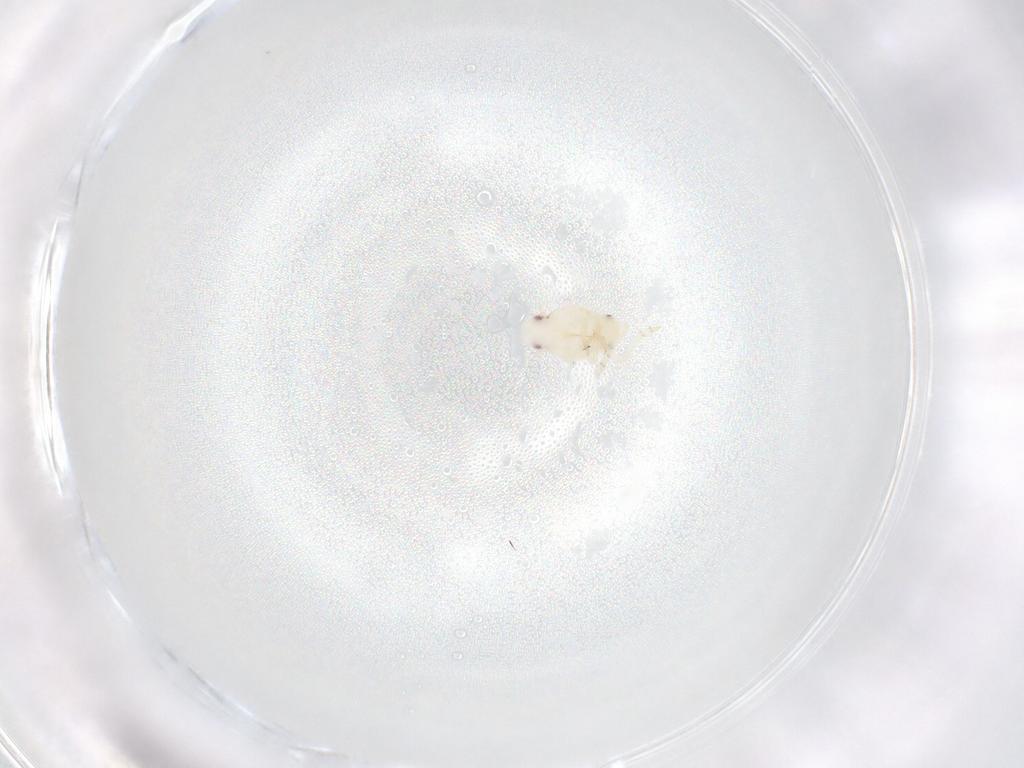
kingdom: Animalia
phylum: Arthropoda
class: Insecta
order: Hemiptera
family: Flatidae
